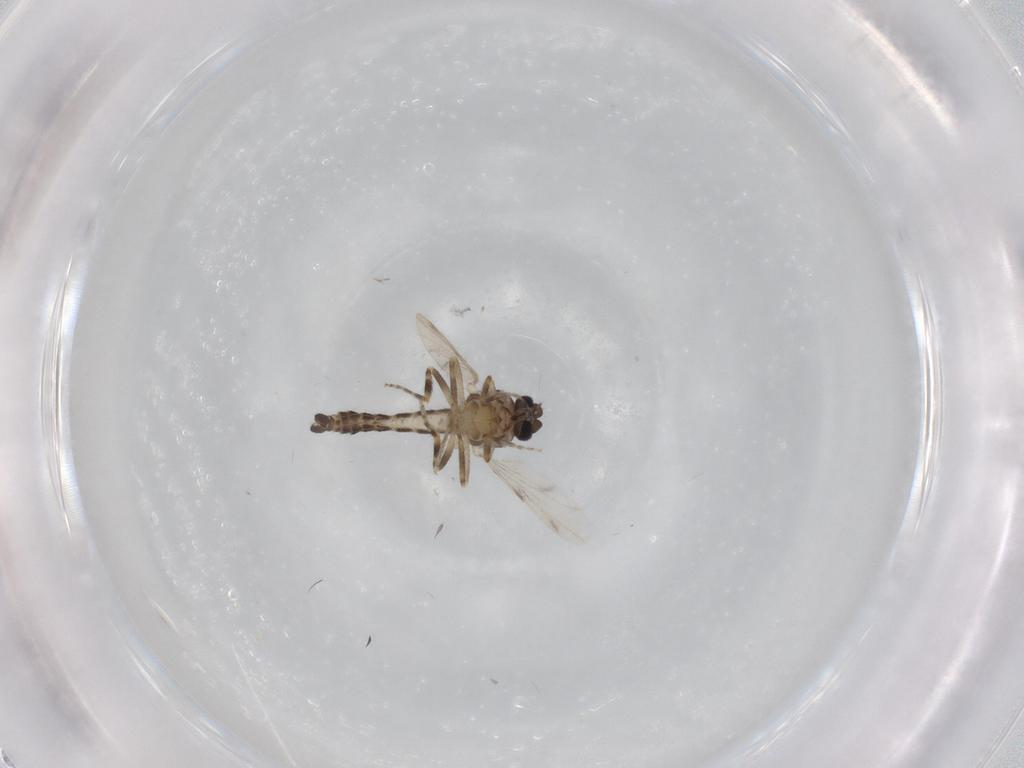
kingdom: Animalia
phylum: Arthropoda
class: Insecta
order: Diptera
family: Ceratopogonidae
